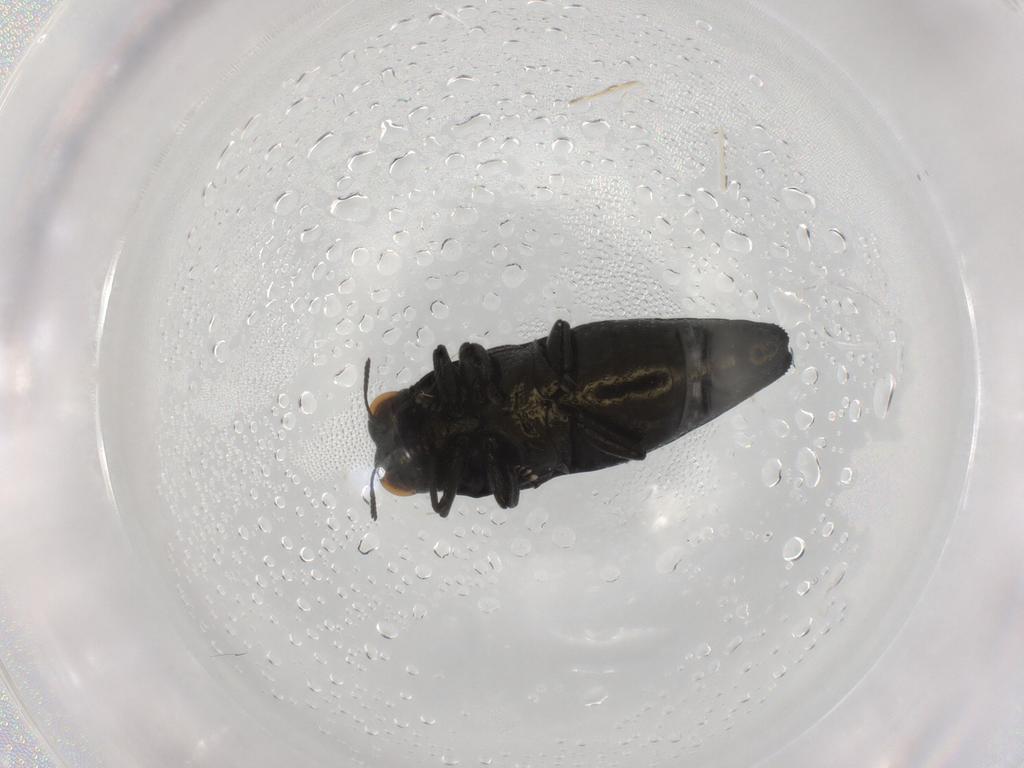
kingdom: Animalia
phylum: Arthropoda
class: Insecta
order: Coleoptera
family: Buprestidae
